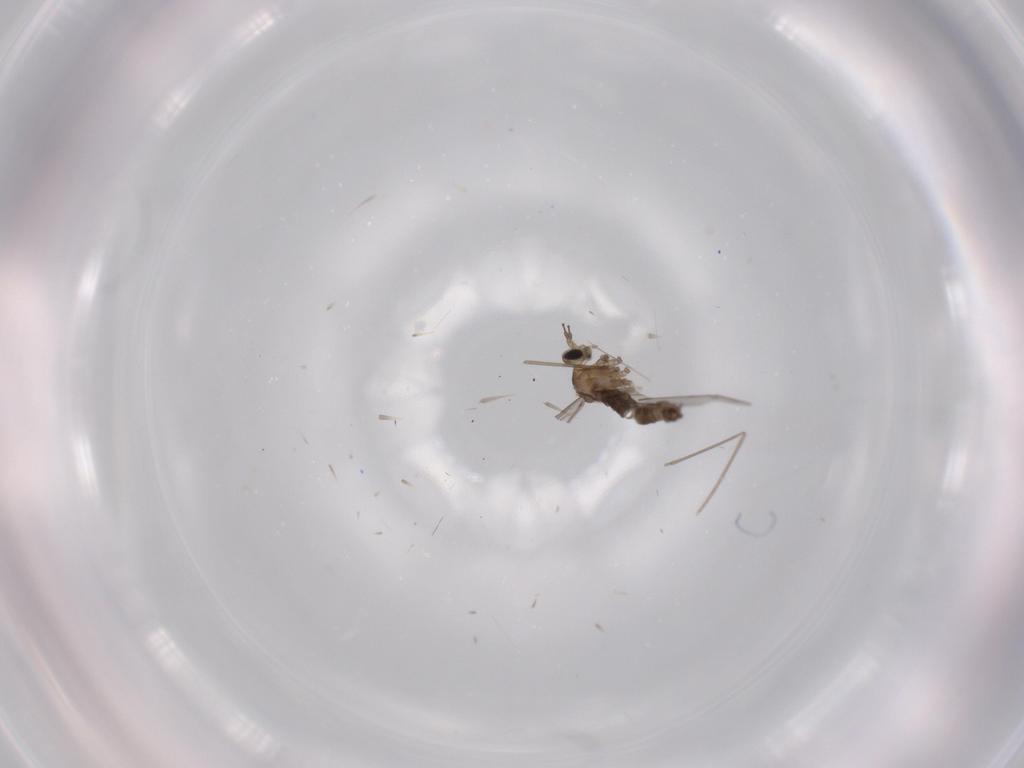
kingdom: Animalia
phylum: Arthropoda
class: Insecta
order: Diptera
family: Cecidomyiidae
